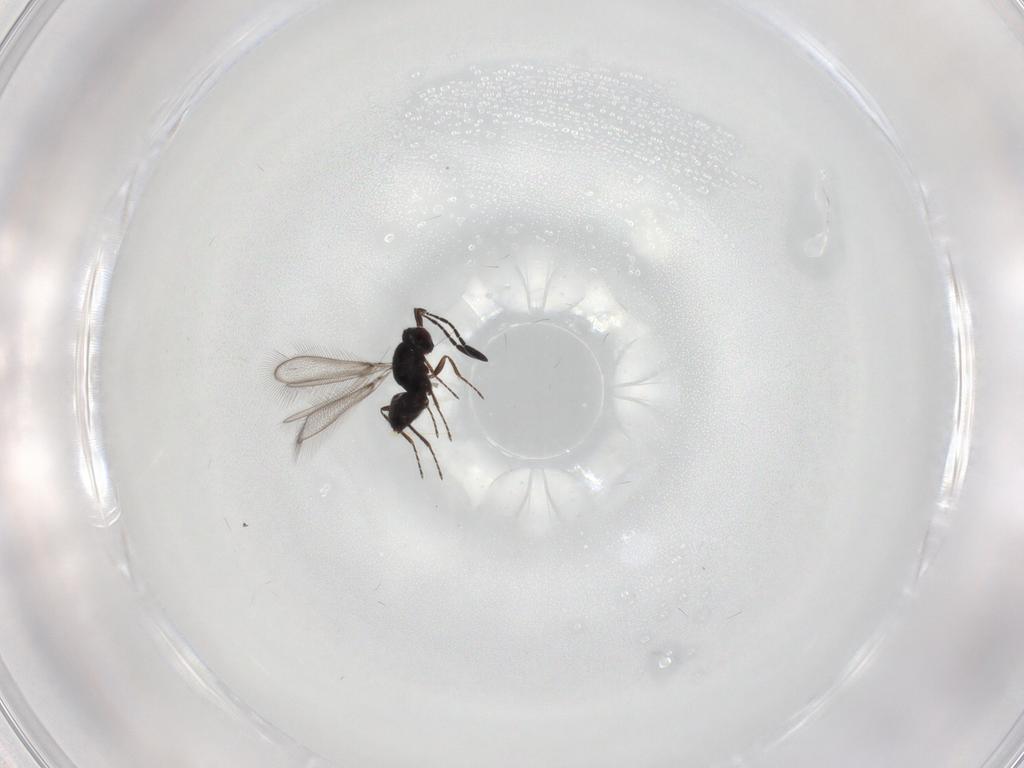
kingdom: Animalia
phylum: Arthropoda
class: Insecta
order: Hymenoptera
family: Mymaridae
